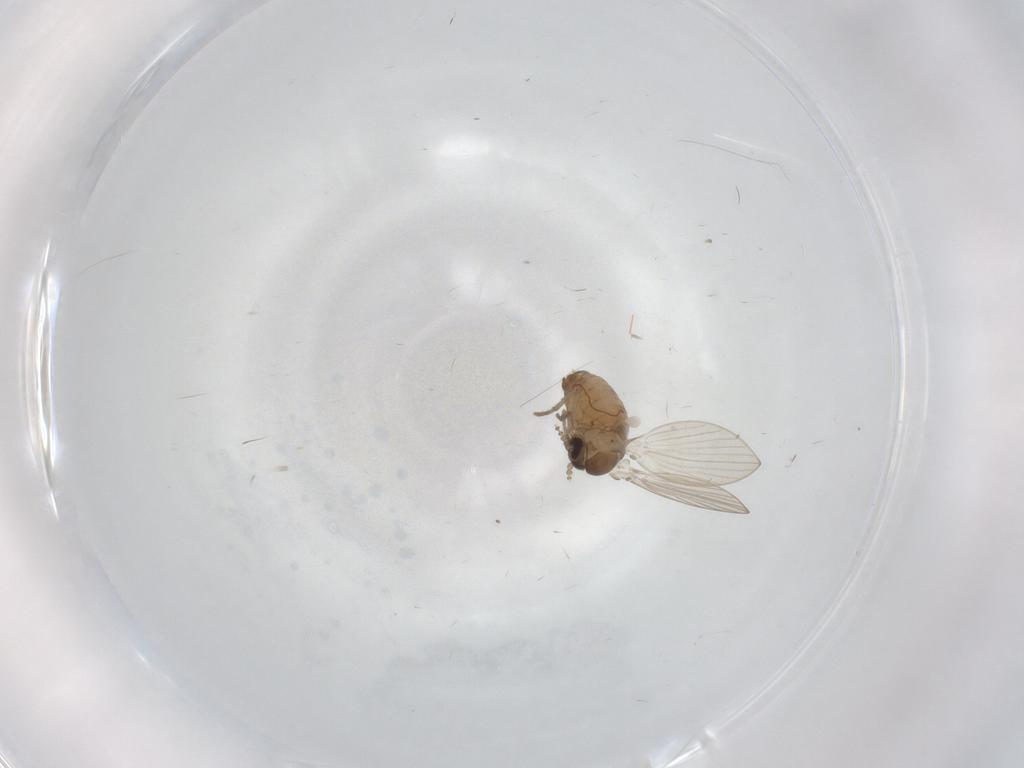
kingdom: Animalia
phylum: Arthropoda
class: Insecta
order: Diptera
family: Psychodidae
